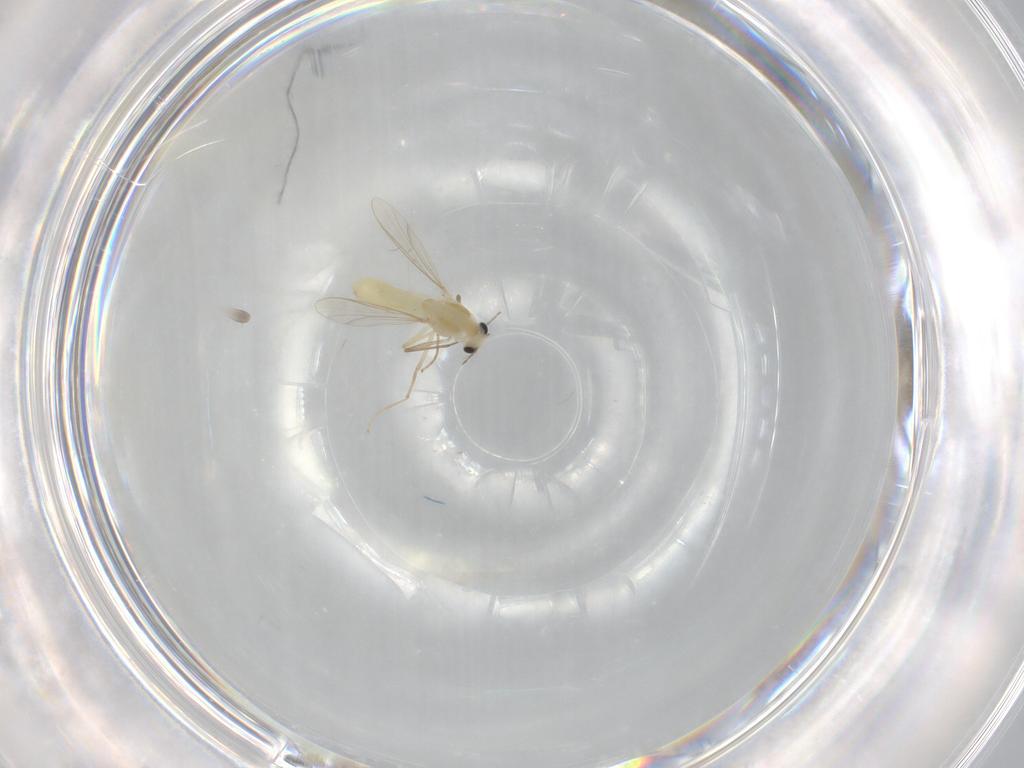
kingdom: Animalia
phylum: Arthropoda
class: Insecta
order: Diptera
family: Chironomidae
